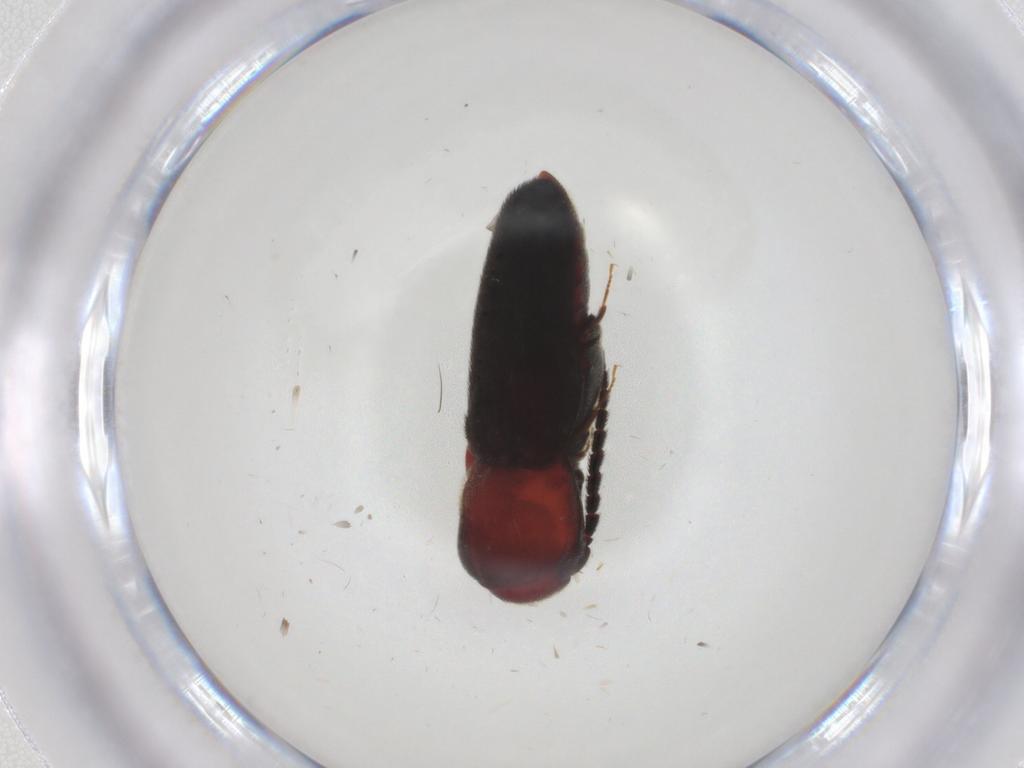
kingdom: Animalia
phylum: Arthropoda
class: Insecta
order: Coleoptera
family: Eucnemidae
